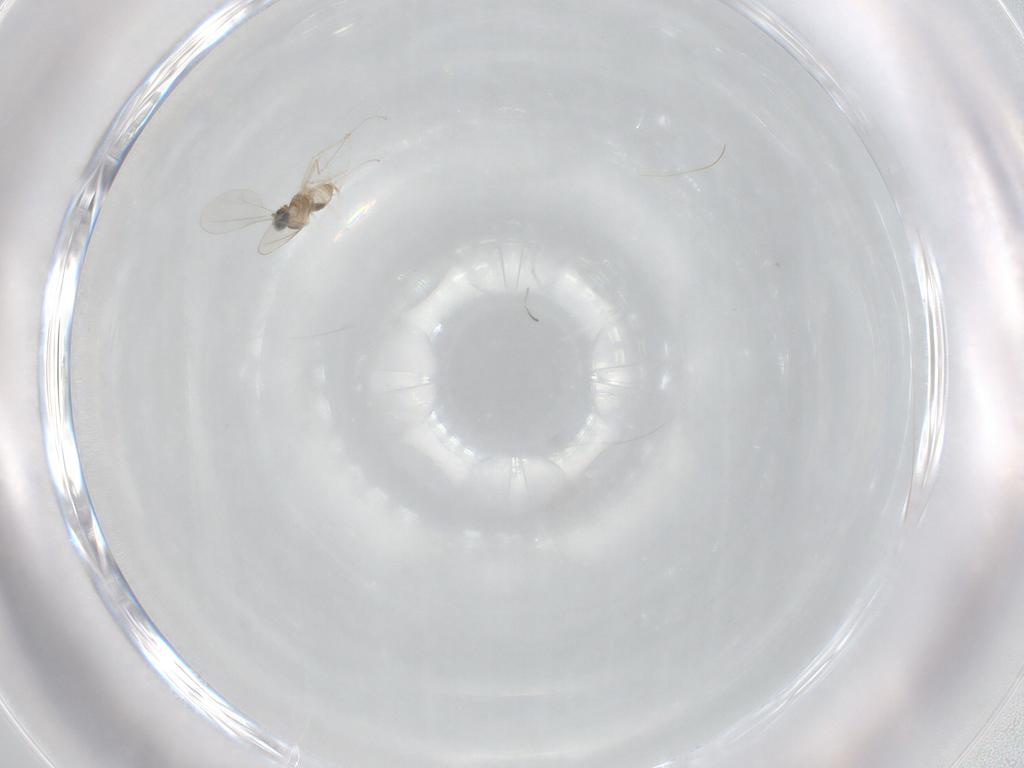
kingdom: Animalia
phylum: Arthropoda
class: Insecta
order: Diptera
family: Cecidomyiidae
